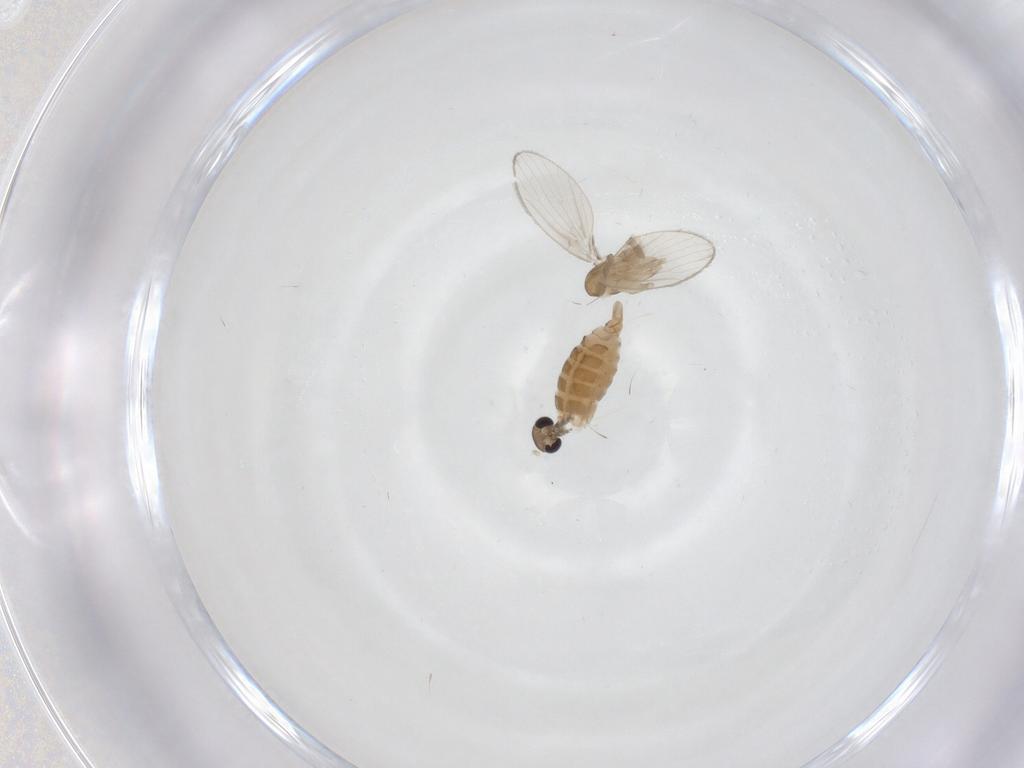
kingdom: Animalia
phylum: Arthropoda
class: Insecta
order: Diptera
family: Psychodidae
